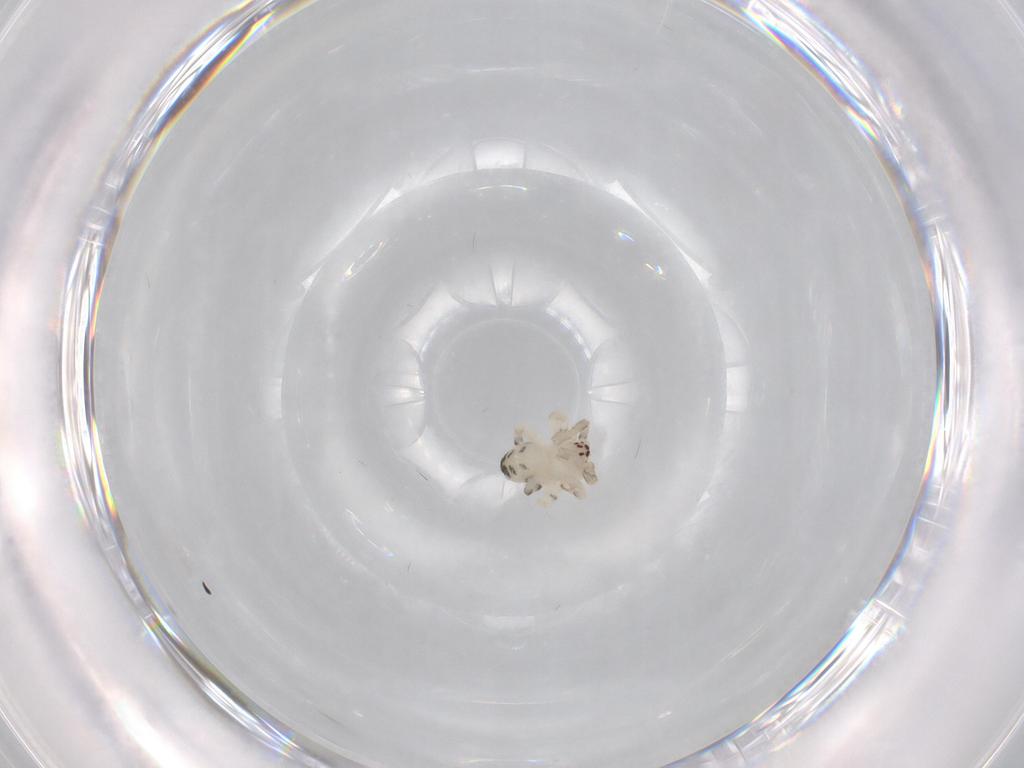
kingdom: Animalia
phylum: Arthropoda
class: Arachnida
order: Araneae
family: Uloboridae
